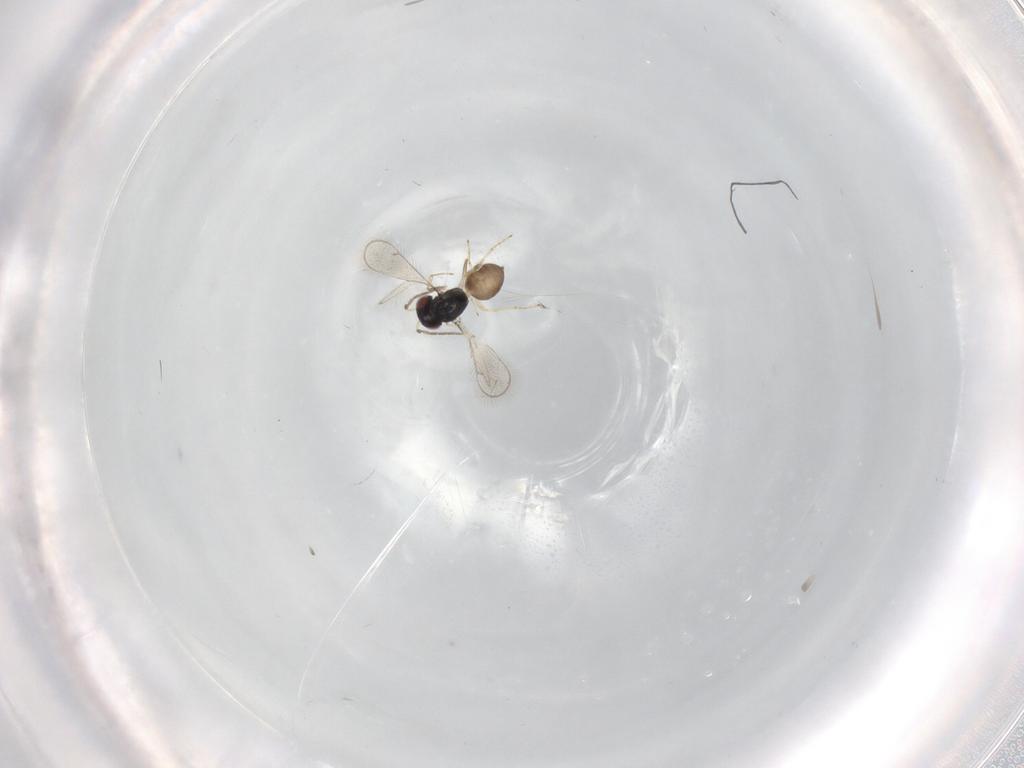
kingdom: Animalia
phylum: Arthropoda
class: Insecta
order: Hymenoptera
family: Eulophidae
